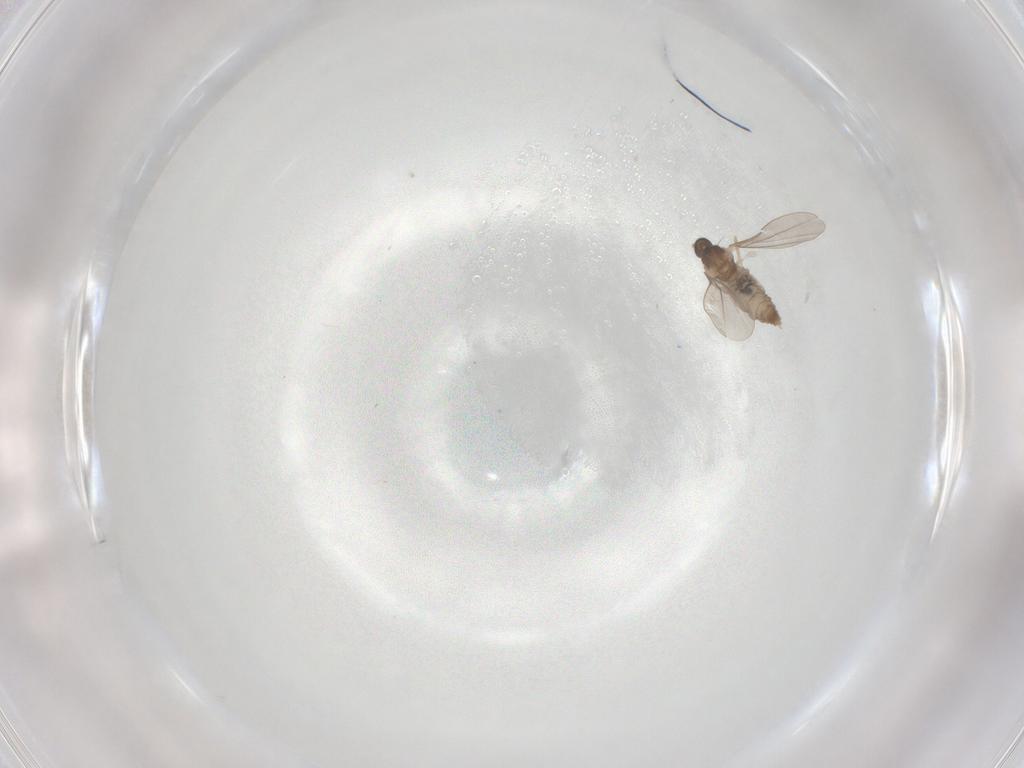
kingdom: Animalia
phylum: Arthropoda
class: Insecta
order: Diptera
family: Cecidomyiidae
